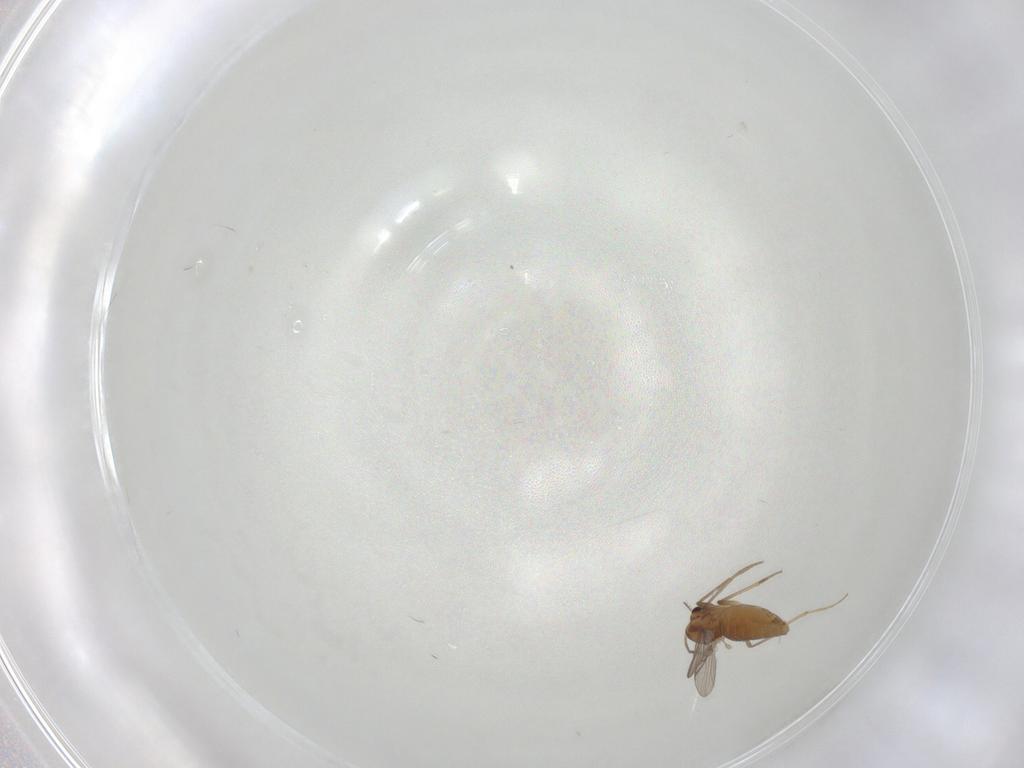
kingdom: Animalia
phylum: Arthropoda
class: Insecta
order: Diptera
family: Chironomidae
